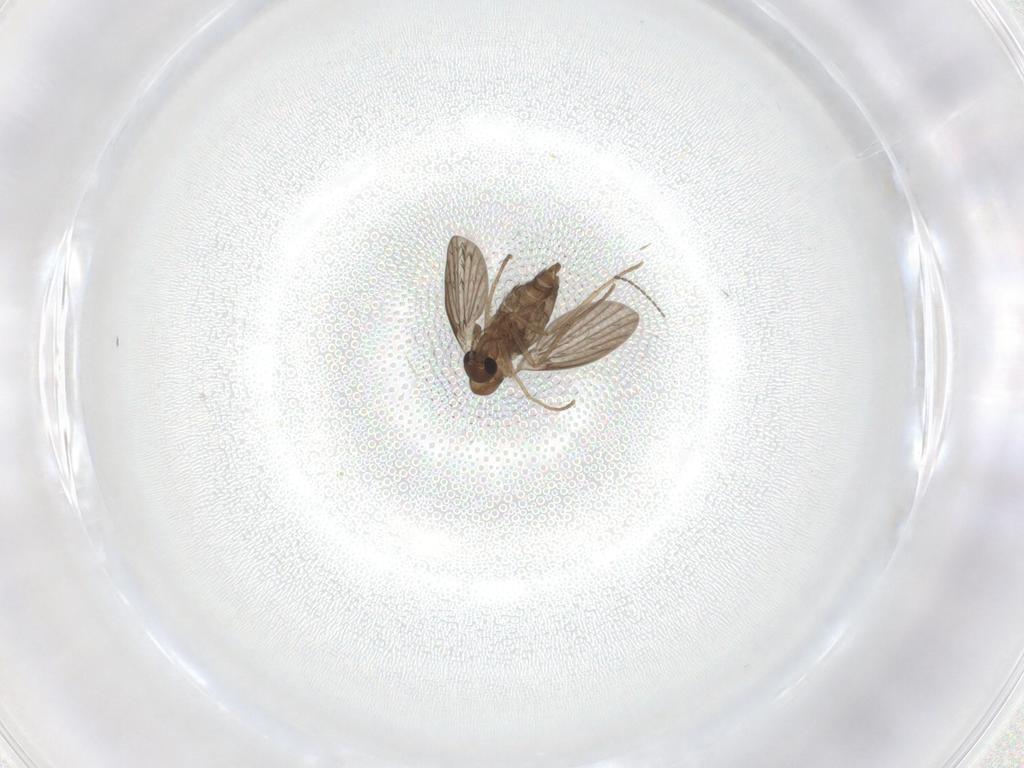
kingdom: Animalia
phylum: Arthropoda
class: Insecta
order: Diptera
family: Cecidomyiidae
